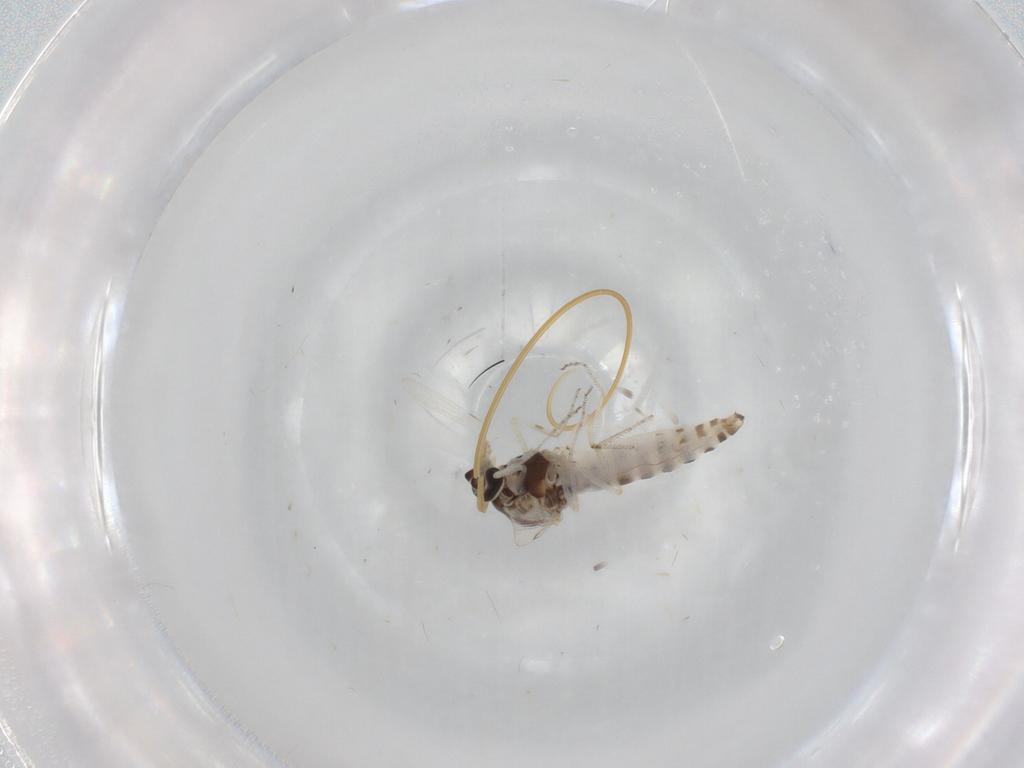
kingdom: Animalia
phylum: Arthropoda
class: Insecta
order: Diptera
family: Ceratopogonidae
